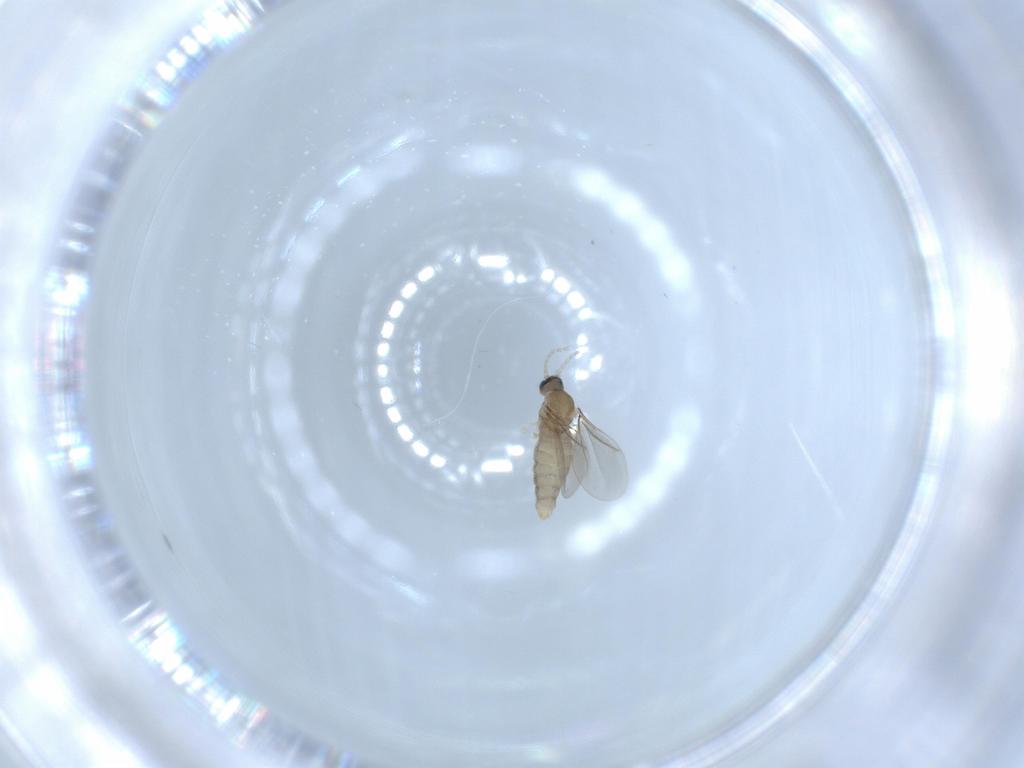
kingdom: Animalia
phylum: Arthropoda
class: Insecta
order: Diptera
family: Cecidomyiidae
